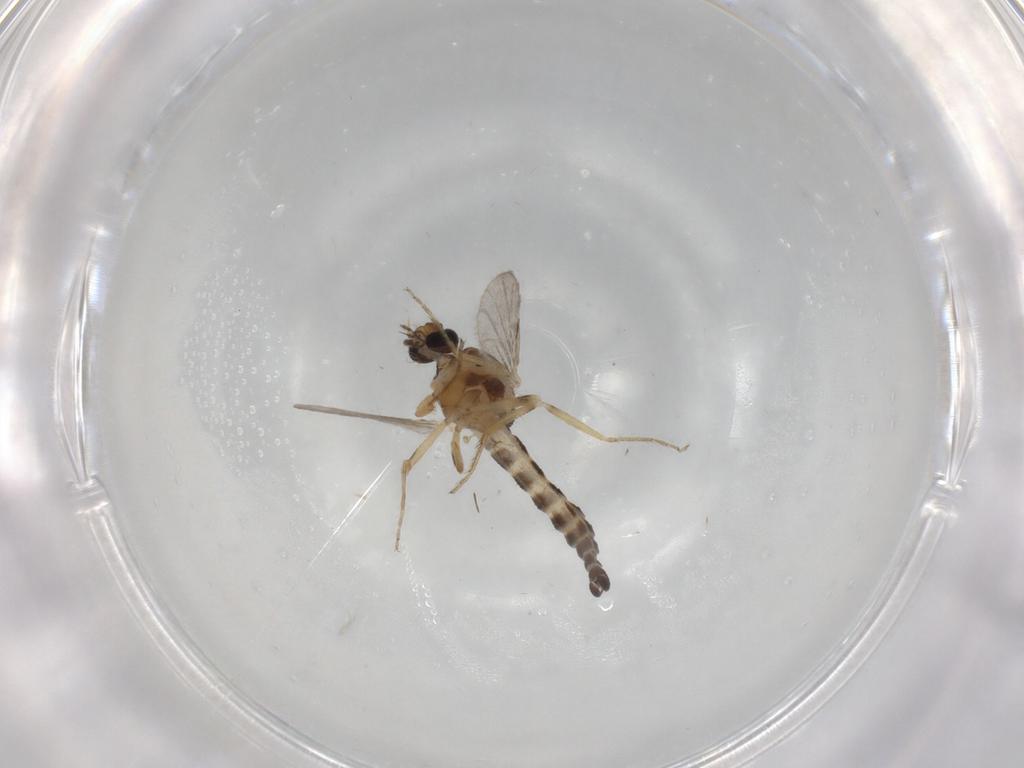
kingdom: Animalia
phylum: Arthropoda
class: Insecta
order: Diptera
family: Ceratopogonidae
